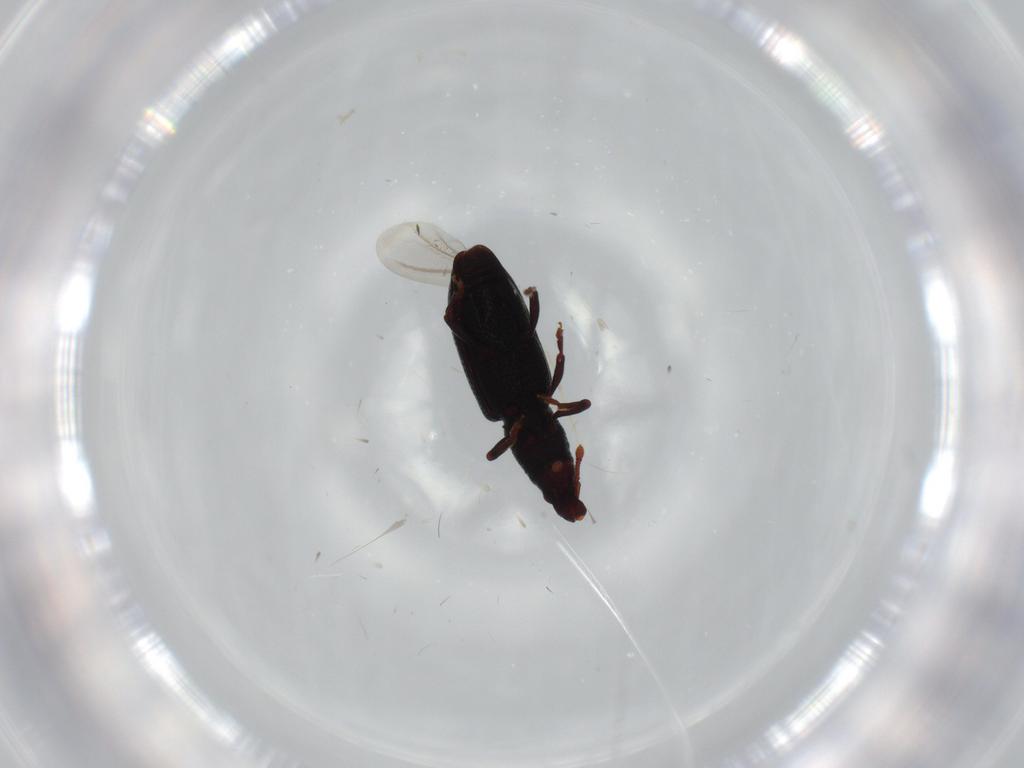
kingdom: Animalia
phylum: Arthropoda
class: Insecta
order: Coleoptera
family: Curculionidae
